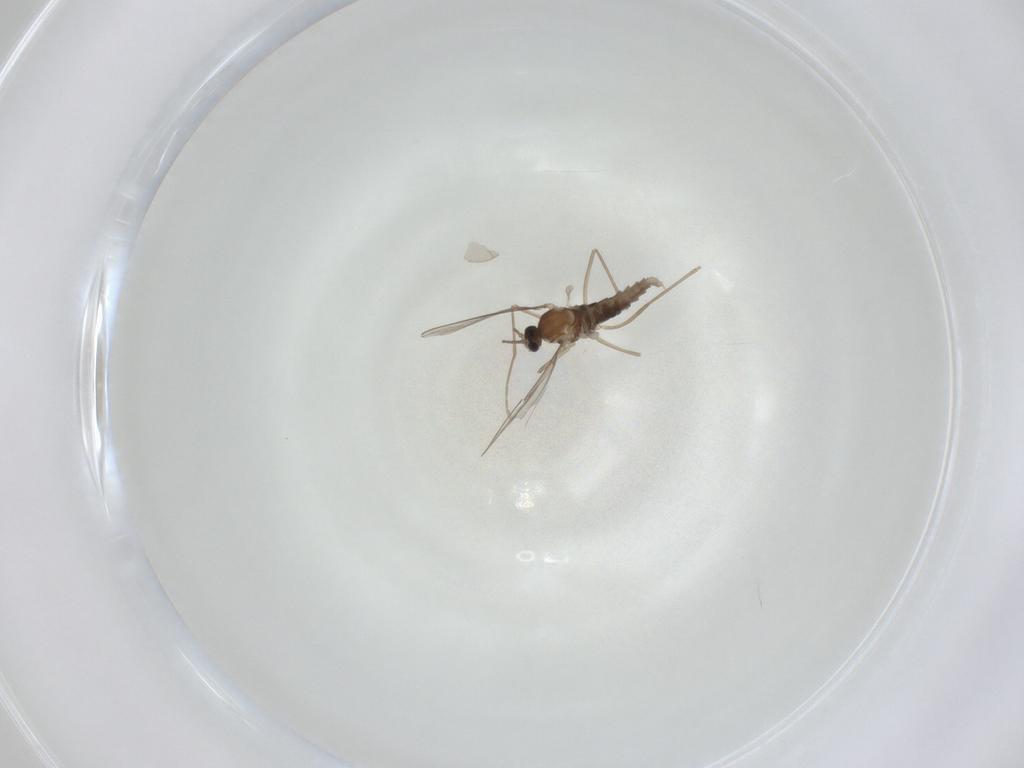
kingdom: Animalia
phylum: Arthropoda
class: Insecta
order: Diptera
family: Cecidomyiidae
